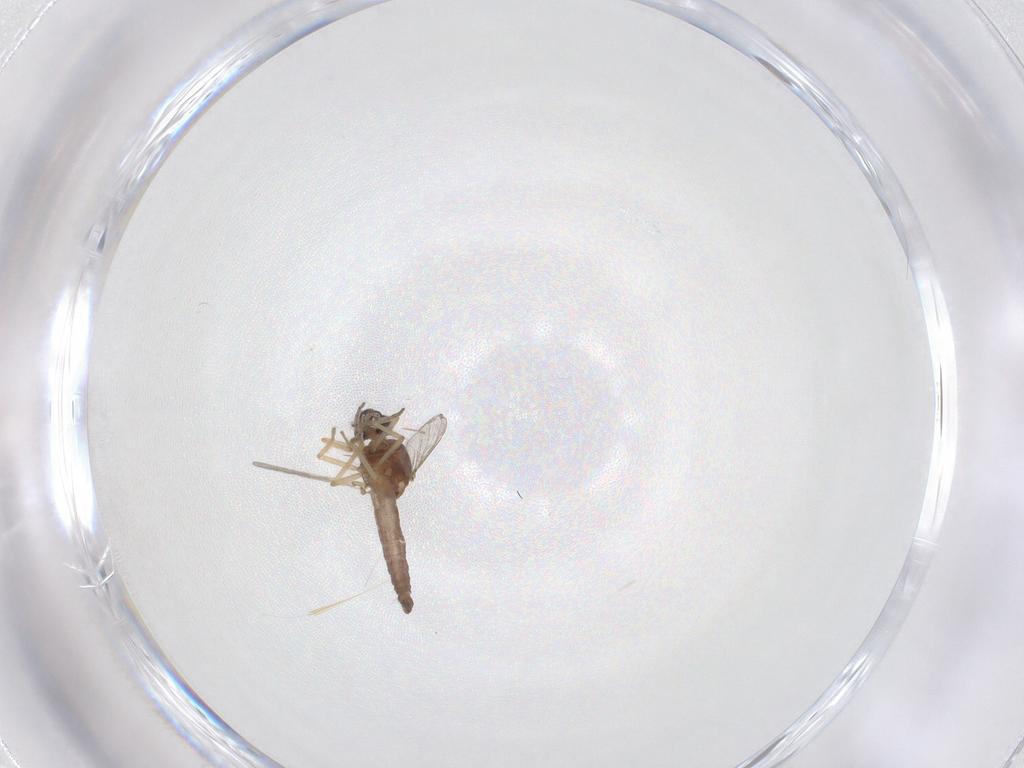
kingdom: Animalia
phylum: Arthropoda
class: Insecta
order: Diptera
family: Ceratopogonidae
